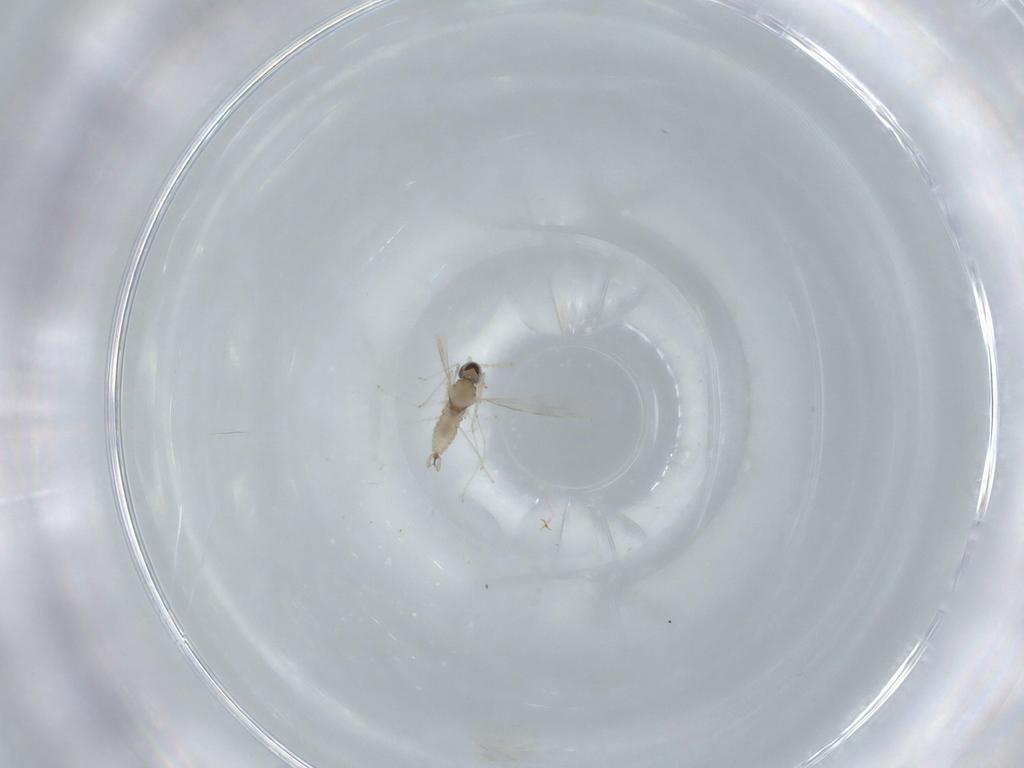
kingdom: Animalia
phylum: Arthropoda
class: Insecta
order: Diptera
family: Cecidomyiidae
